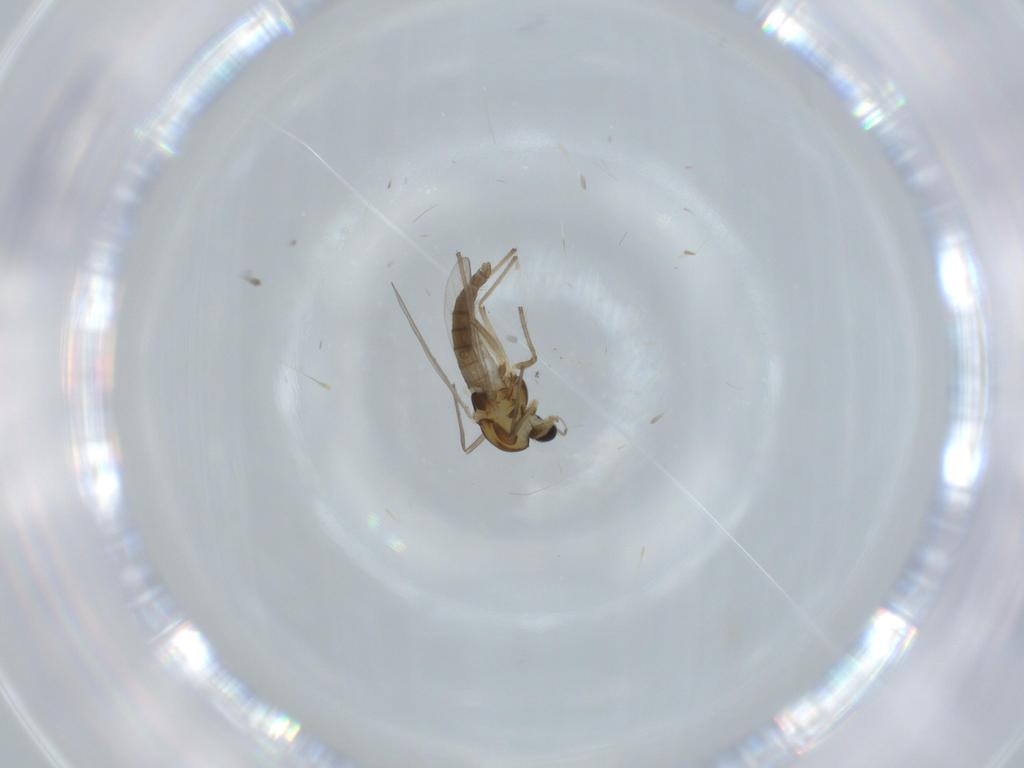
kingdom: Animalia
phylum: Arthropoda
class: Insecta
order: Diptera
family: Chironomidae
